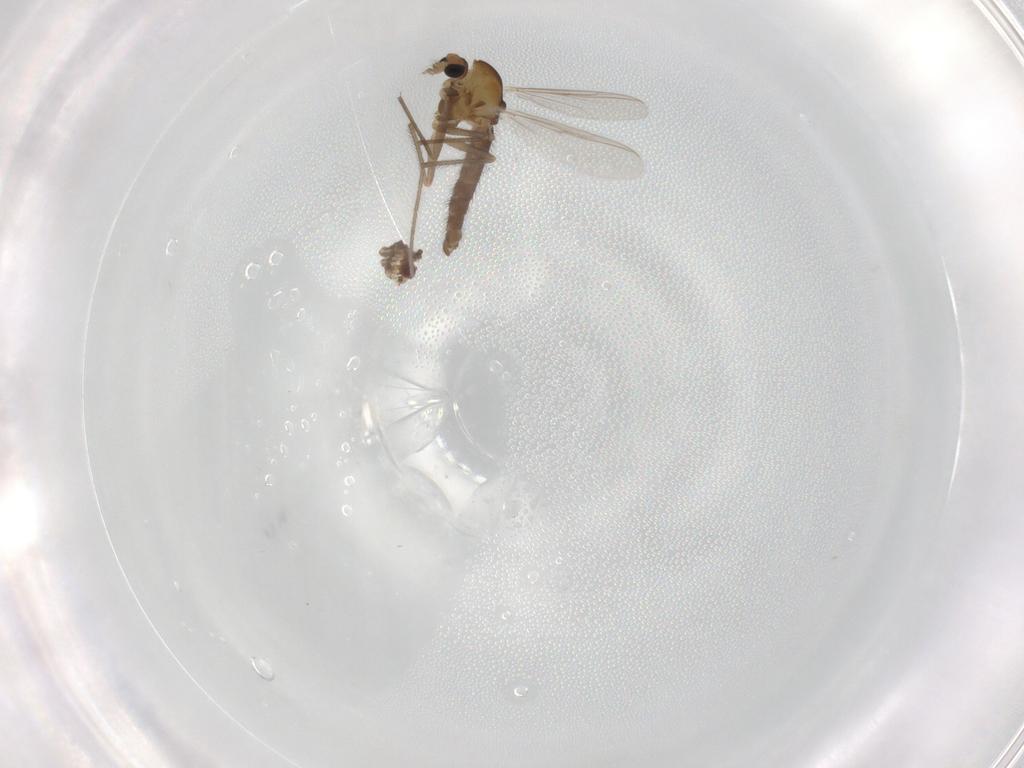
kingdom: Animalia
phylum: Arthropoda
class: Insecta
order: Diptera
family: Chironomidae
